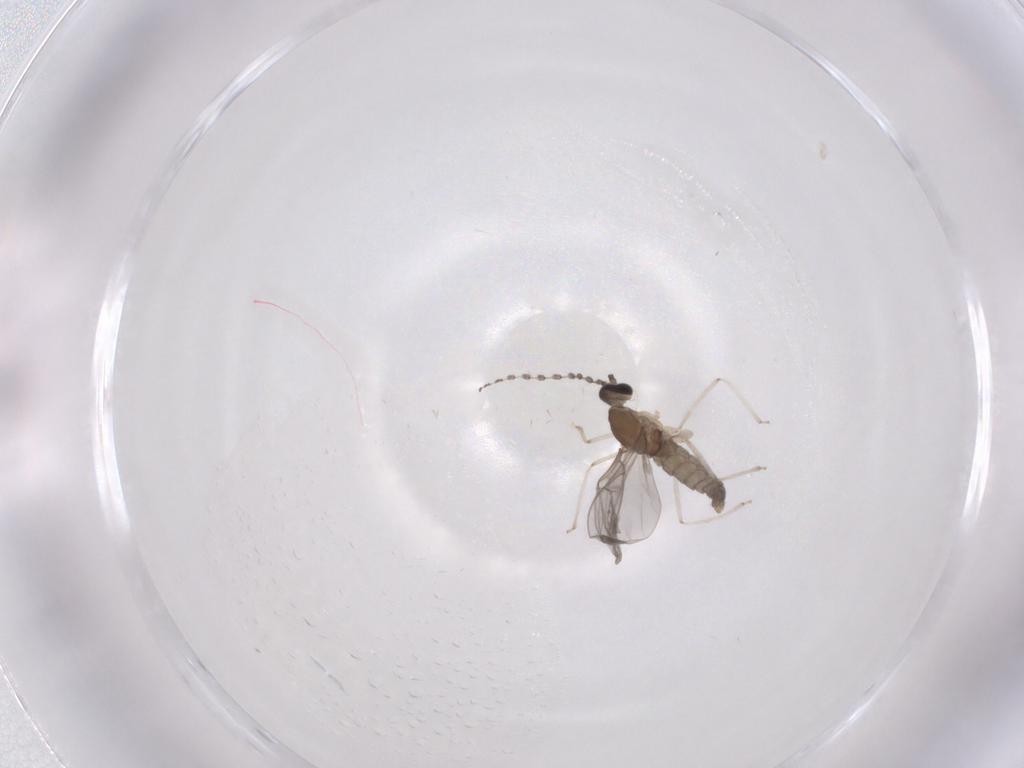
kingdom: Animalia
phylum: Arthropoda
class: Insecta
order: Diptera
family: Cecidomyiidae
